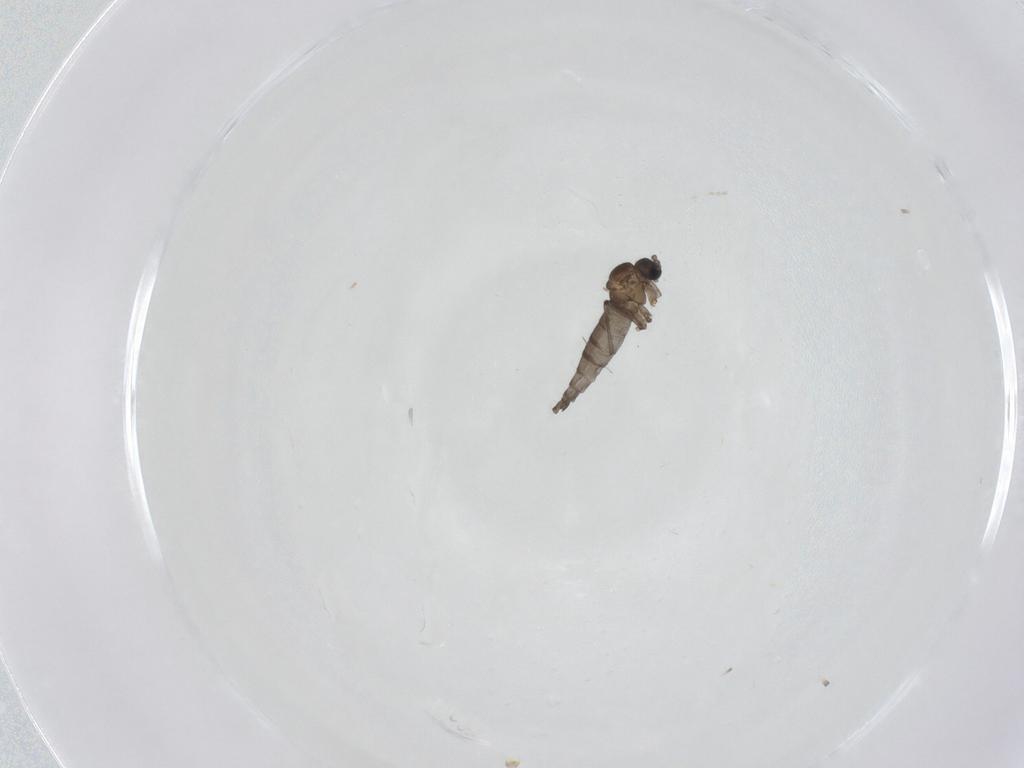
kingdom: Animalia
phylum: Arthropoda
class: Insecta
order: Diptera
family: Sciaridae
